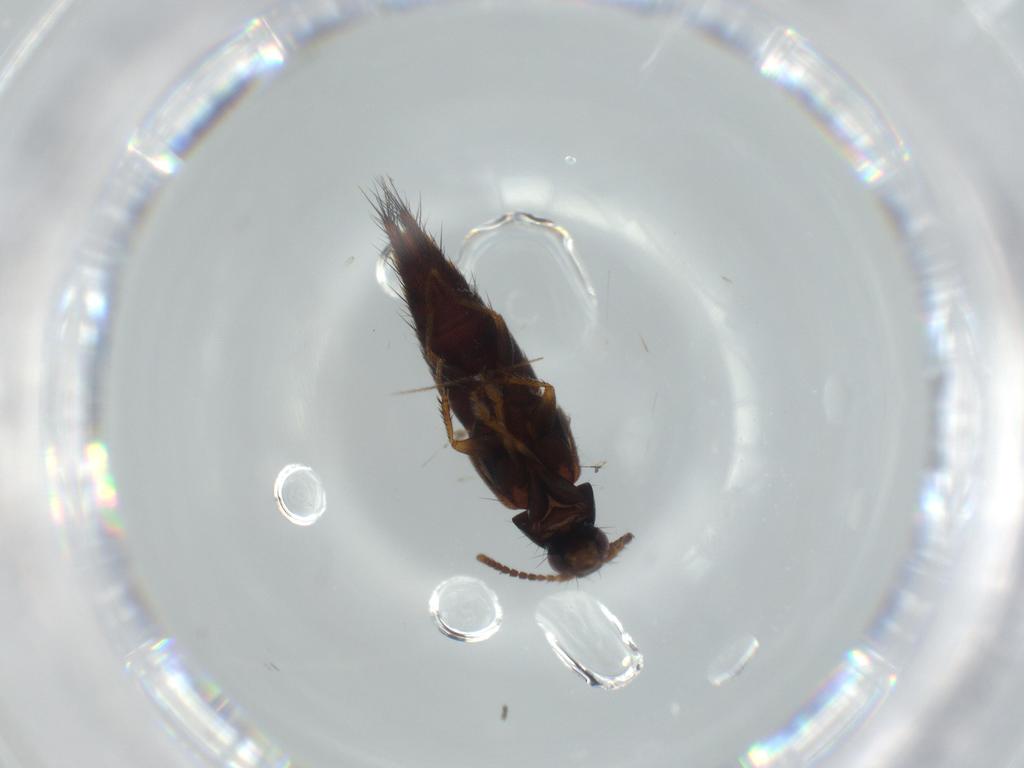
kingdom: Animalia
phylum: Arthropoda
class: Insecta
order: Coleoptera
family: Staphylinidae
